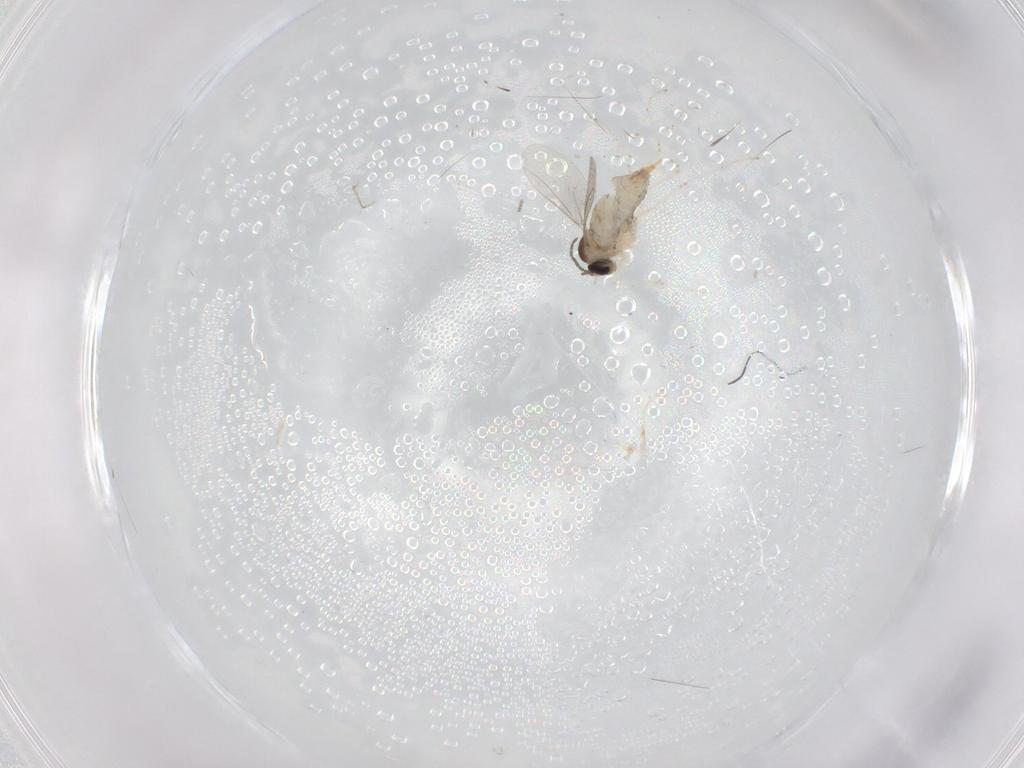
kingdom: Animalia
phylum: Arthropoda
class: Insecta
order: Diptera
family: Cecidomyiidae
